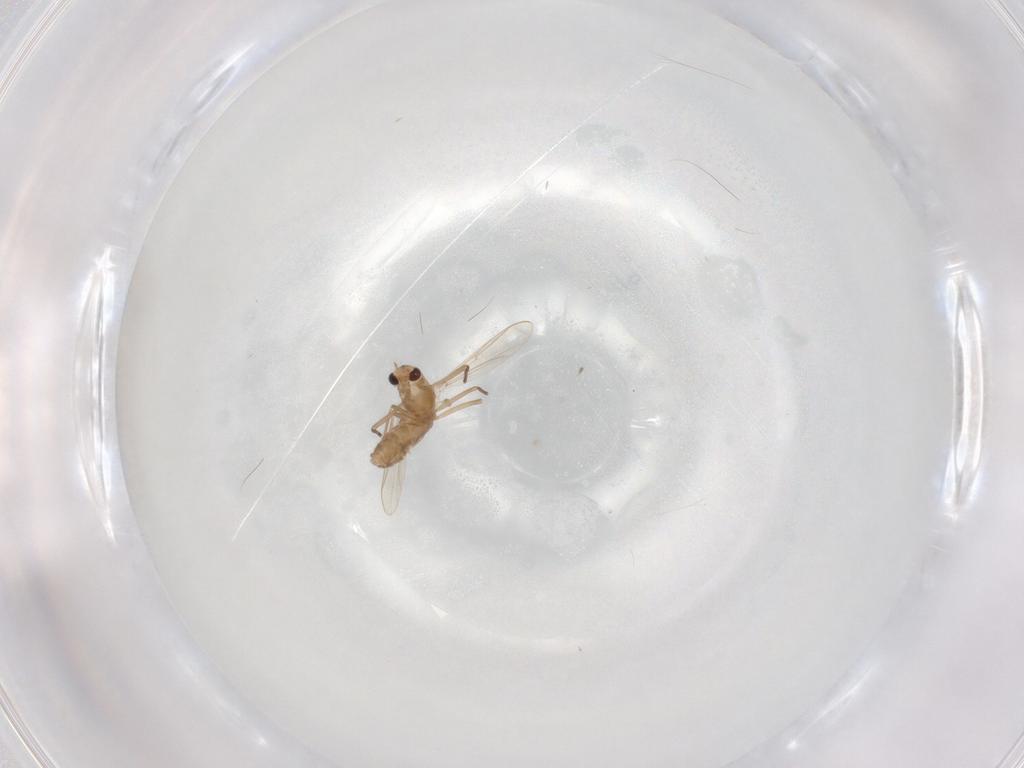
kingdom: Animalia
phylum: Arthropoda
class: Insecta
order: Diptera
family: Chironomidae
